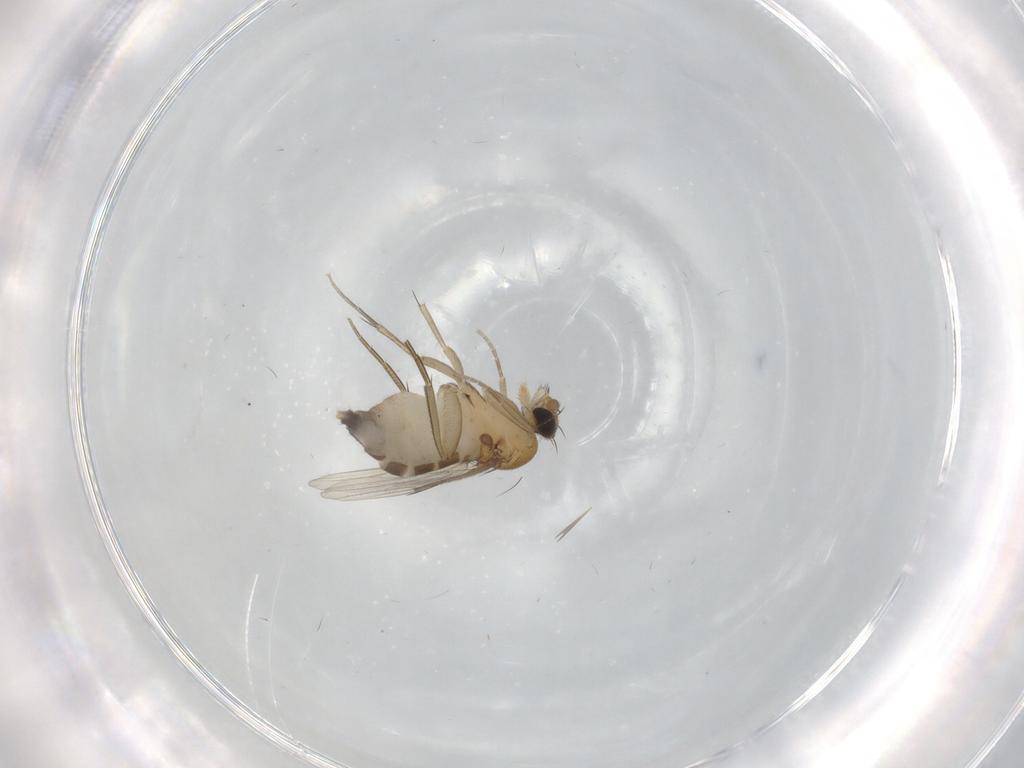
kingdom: Animalia
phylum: Arthropoda
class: Insecta
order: Diptera
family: Phoridae
